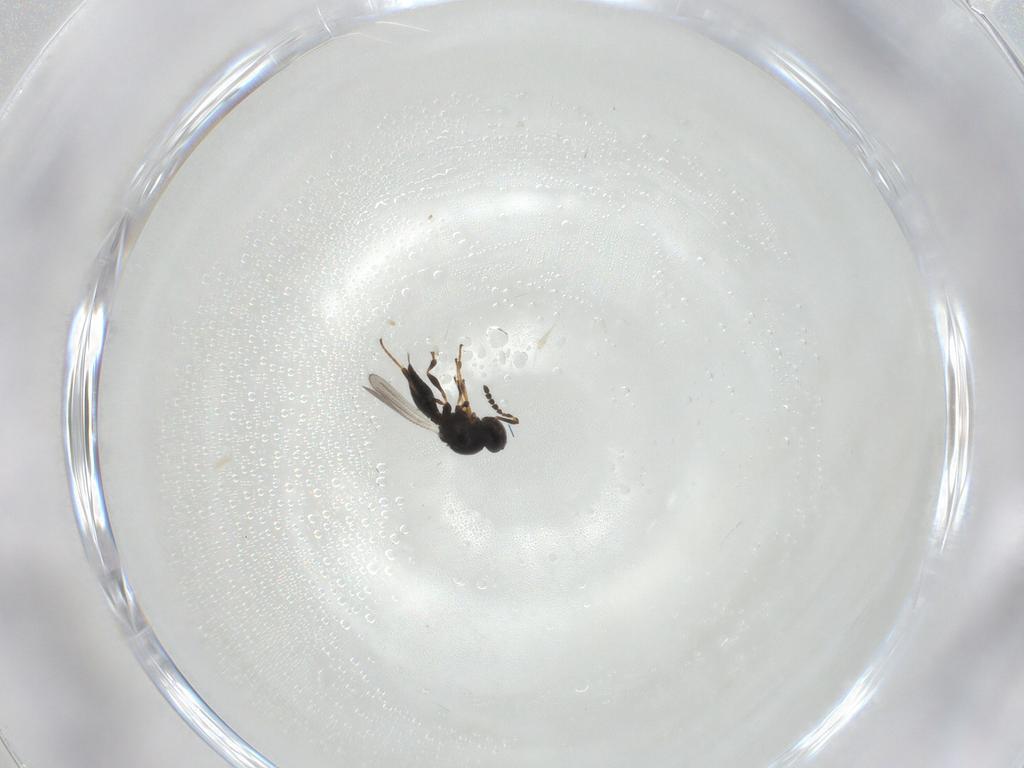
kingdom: Animalia
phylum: Arthropoda
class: Insecta
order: Hymenoptera
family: Platygastridae
